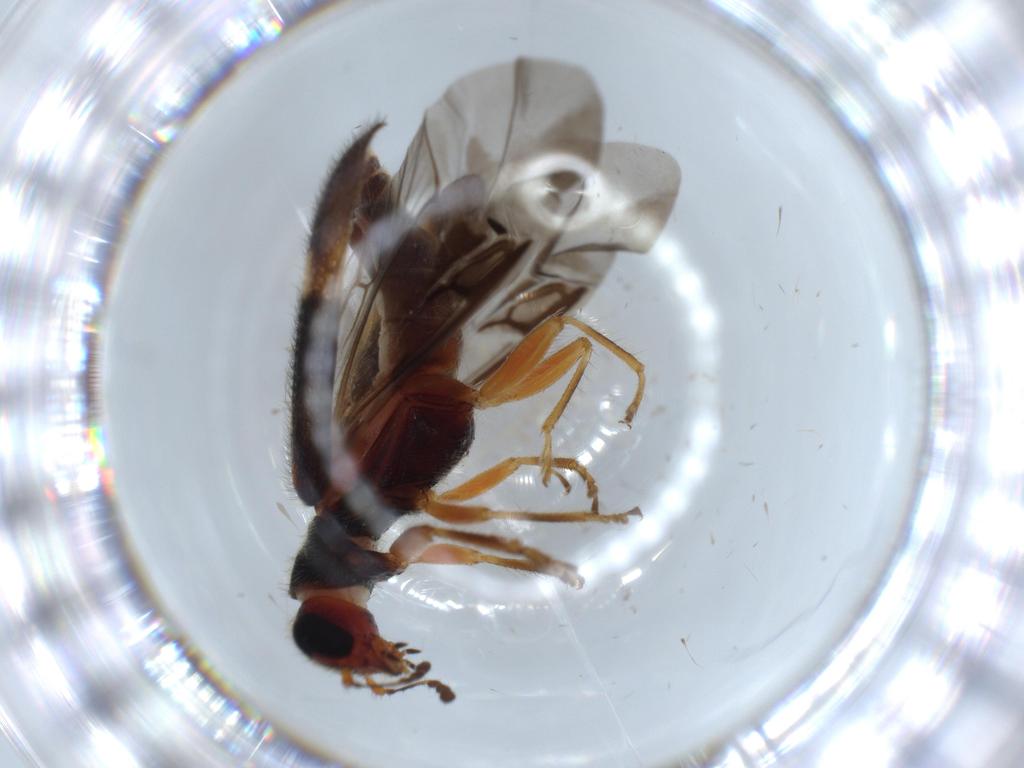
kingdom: Animalia
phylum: Arthropoda
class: Insecta
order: Coleoptera
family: Cleridae
